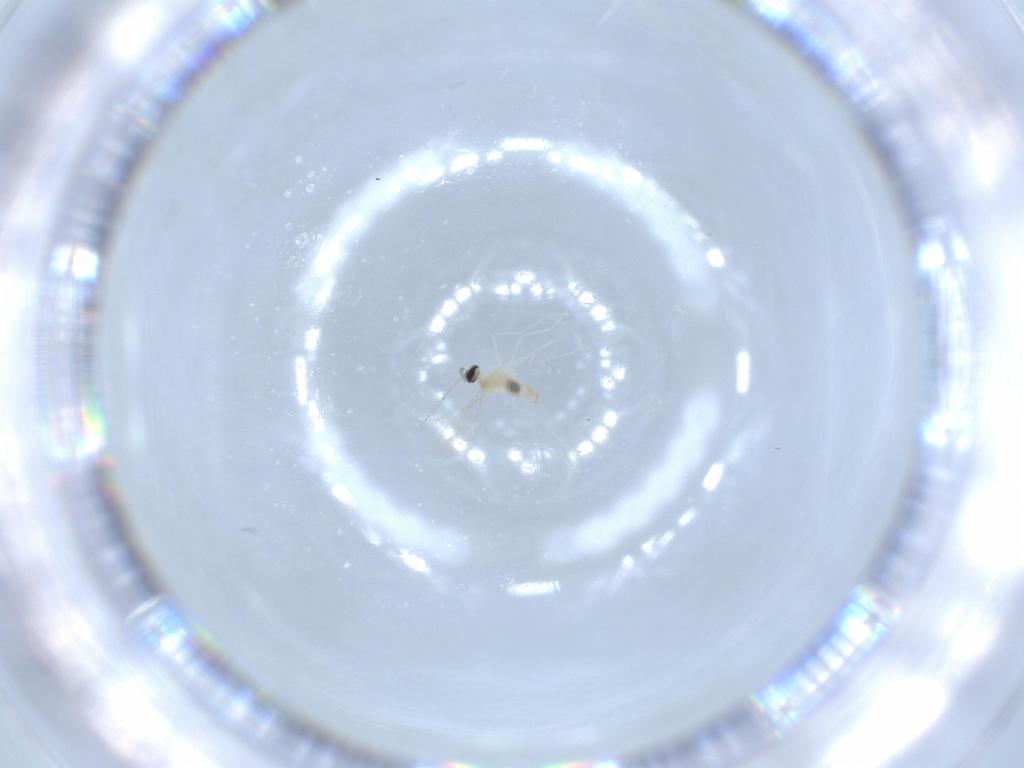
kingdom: Animalia
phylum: Arthropoda
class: Insecta
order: Diptera
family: Cecidomyiidae
